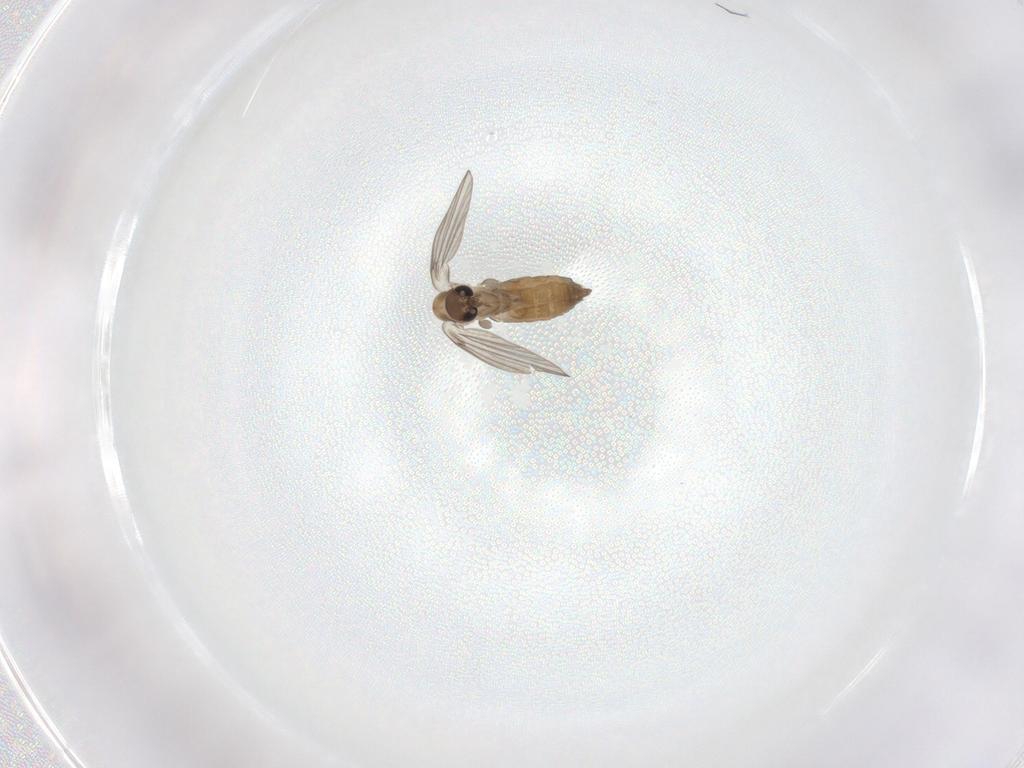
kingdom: Animalia
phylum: Arthropoda
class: Insecta
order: Diptera
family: Psychodidae
